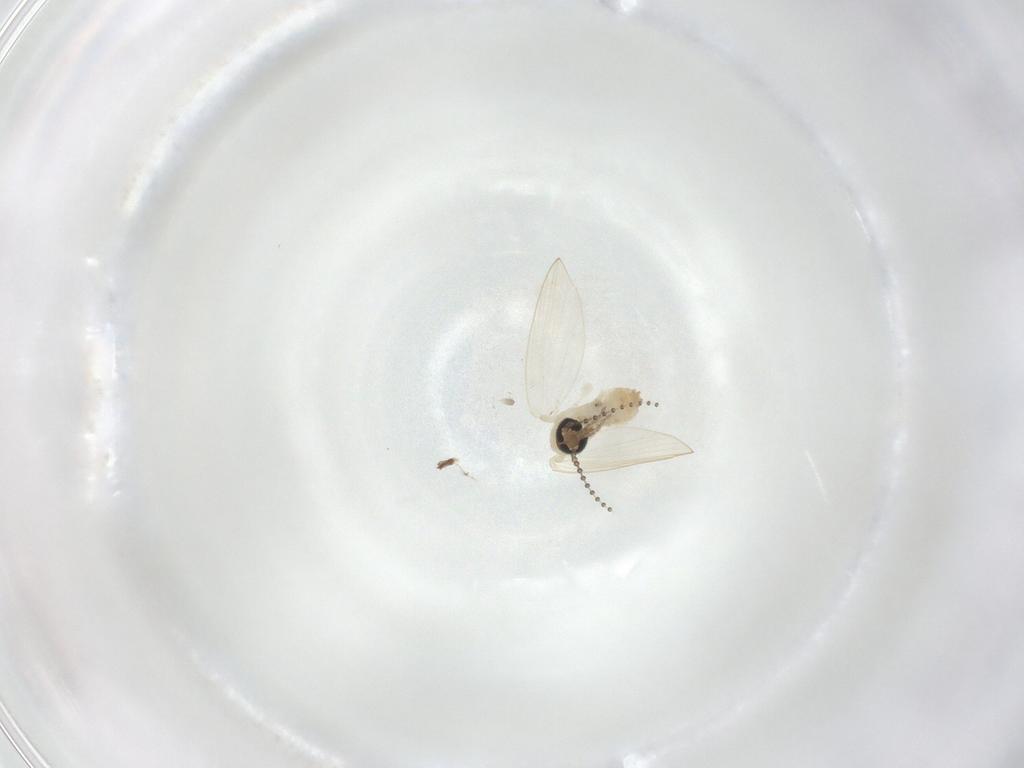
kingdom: Animalia
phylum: Arthropoda
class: Insecta
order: Diptera
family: Psychodidae
